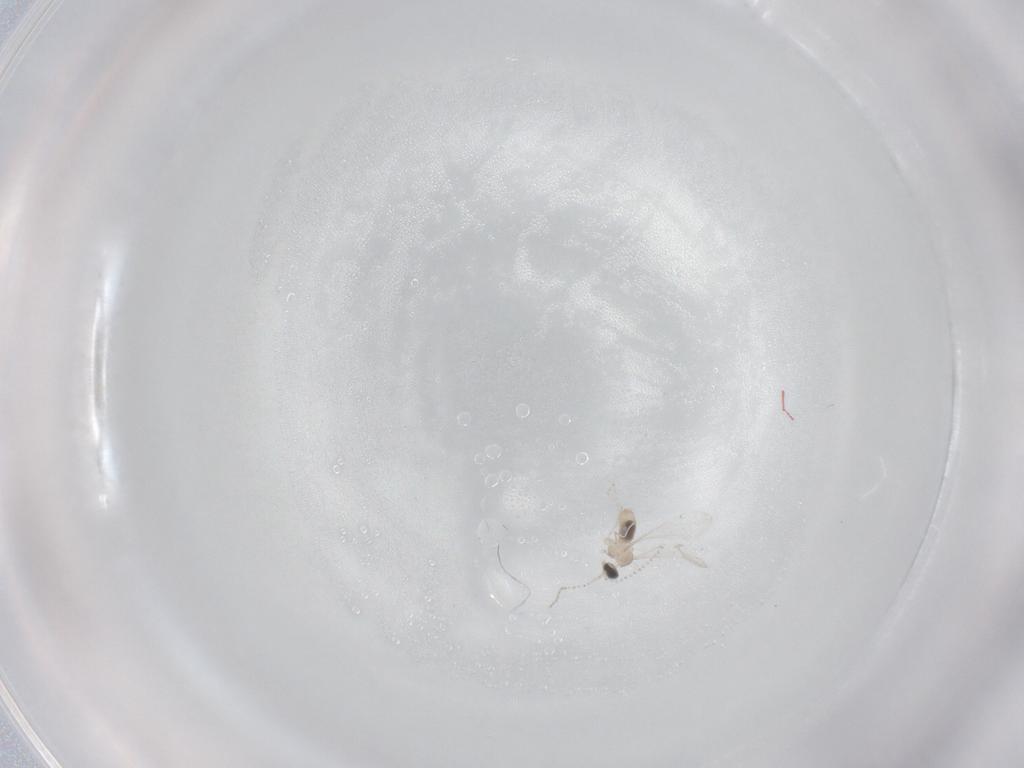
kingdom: Animalia
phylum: Arthropoda
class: Insecta
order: Diptera
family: Cecidomyiidae
